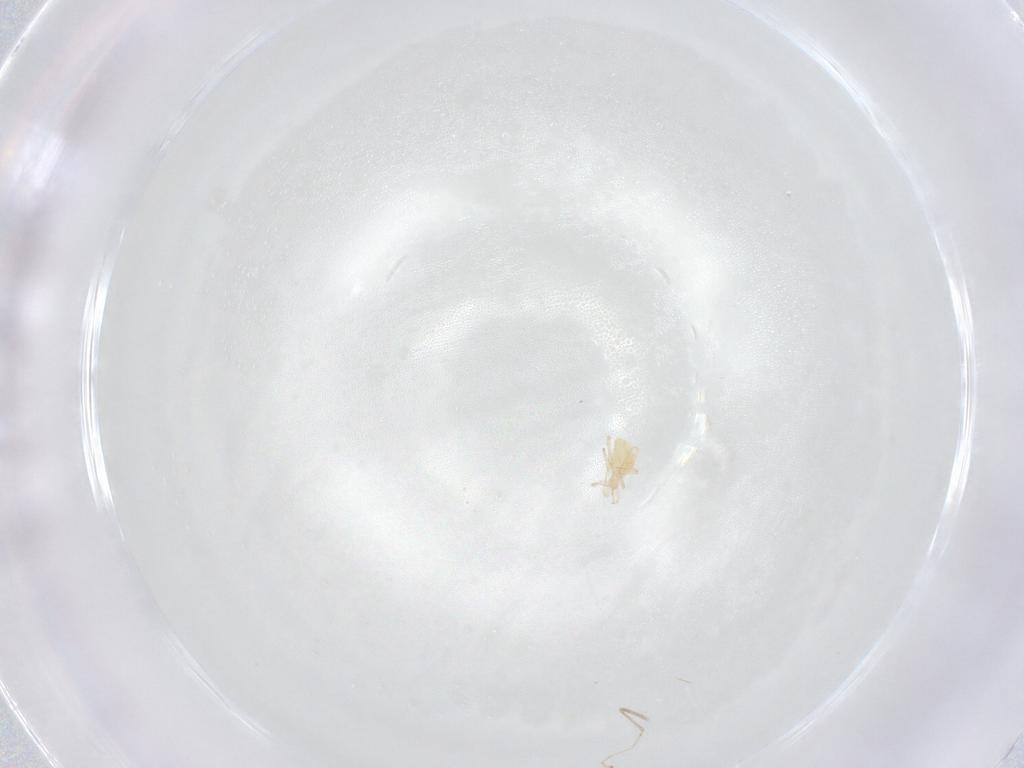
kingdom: Animalia
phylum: Arthropoda
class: Insecta
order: Diptera
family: Cecidomyiidae
